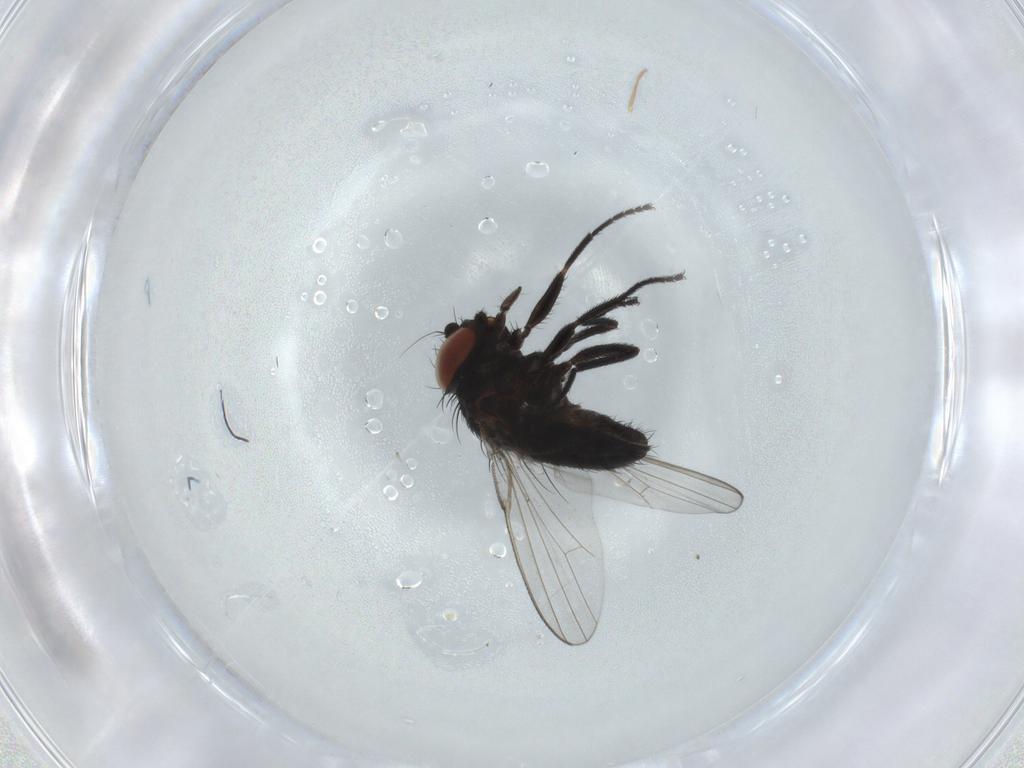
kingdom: Animalia
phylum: Arthropoda
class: Insecta
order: Diptera
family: Milichiidae
